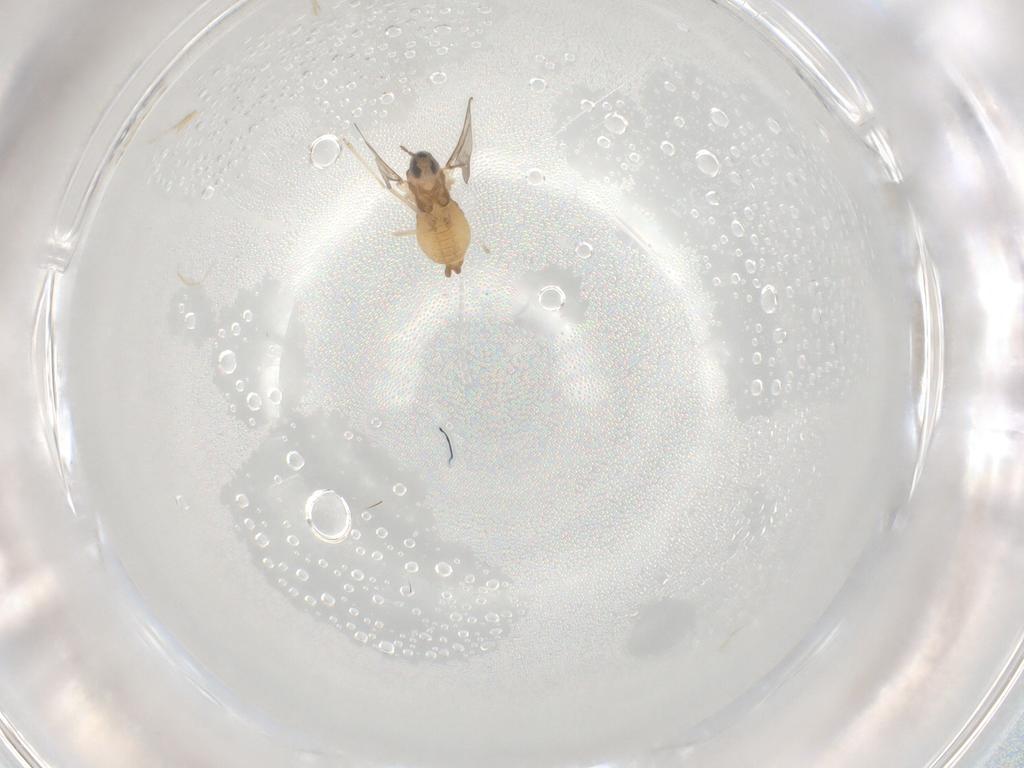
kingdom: Animalia
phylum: Arthropoda
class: Insecta
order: Diptera
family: Cecidomyiidae
